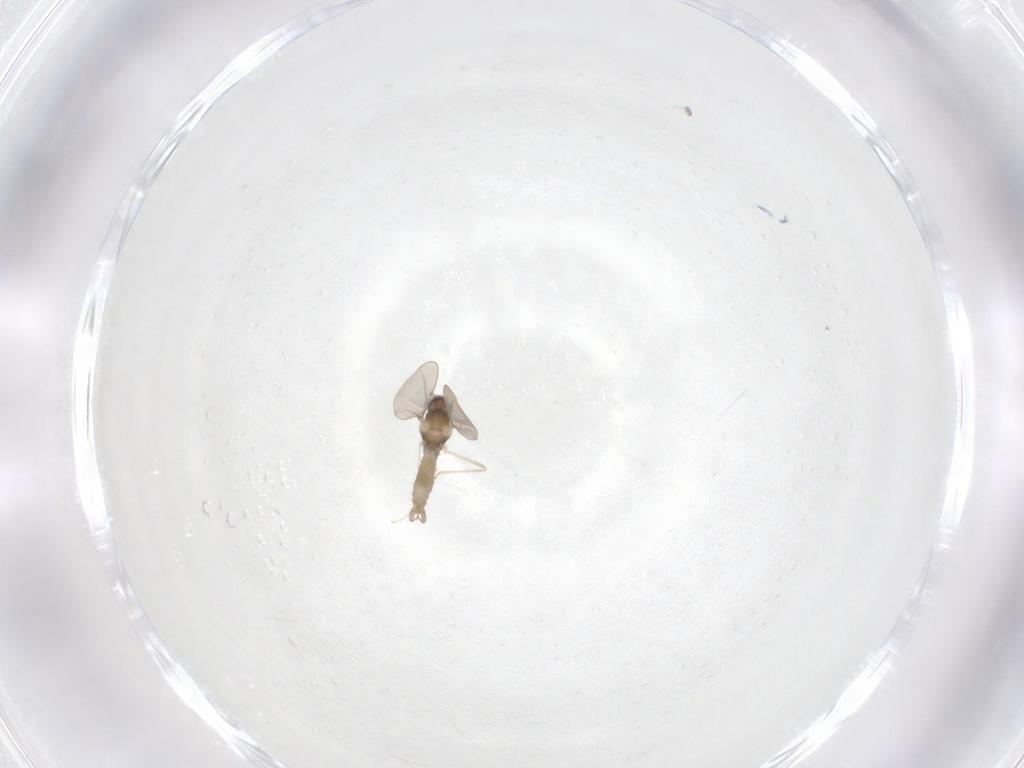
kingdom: Animalia
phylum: Arthropoda
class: Insecta
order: Diptera
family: Cecidomyiidae
